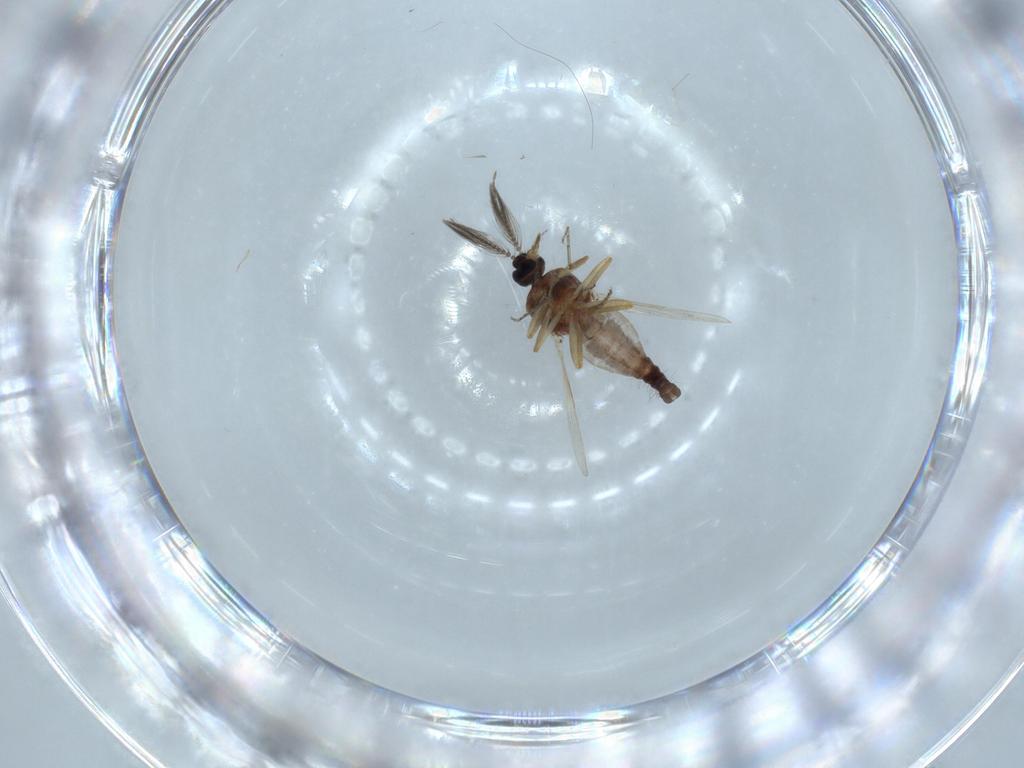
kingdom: Animalia
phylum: Arthropoda
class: Insecta
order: Diptera
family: Ceratopogonidae
